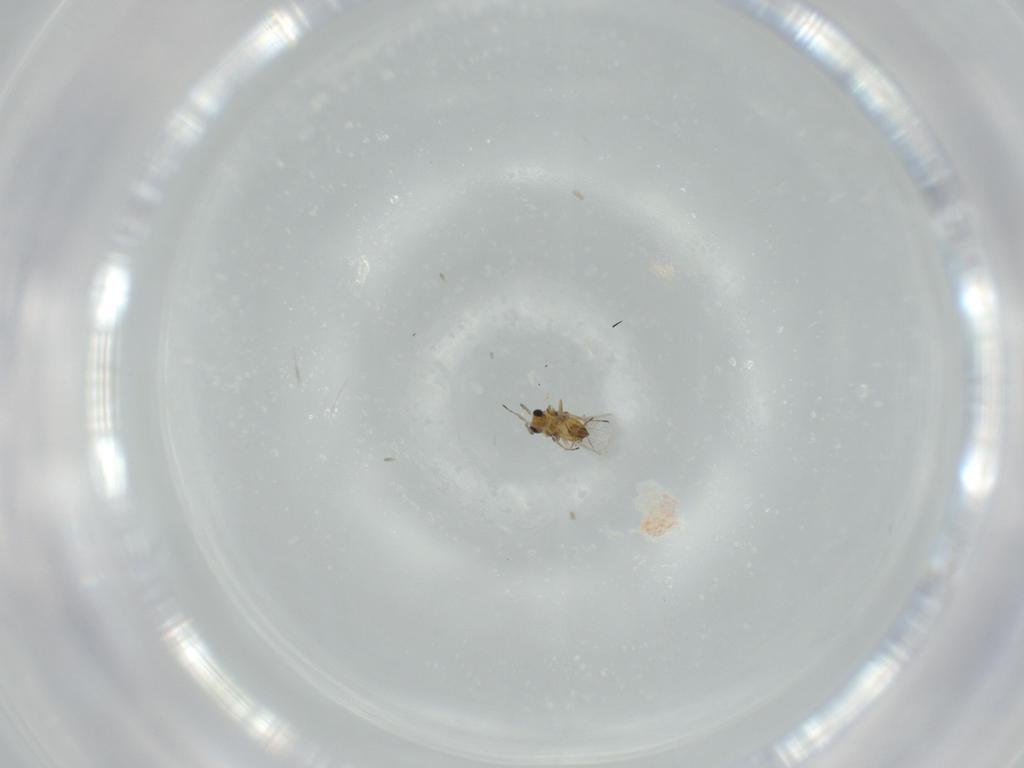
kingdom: Animalia
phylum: Arthropoda
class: Insecta
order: Hymenoptera
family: Trichogrammatidae
